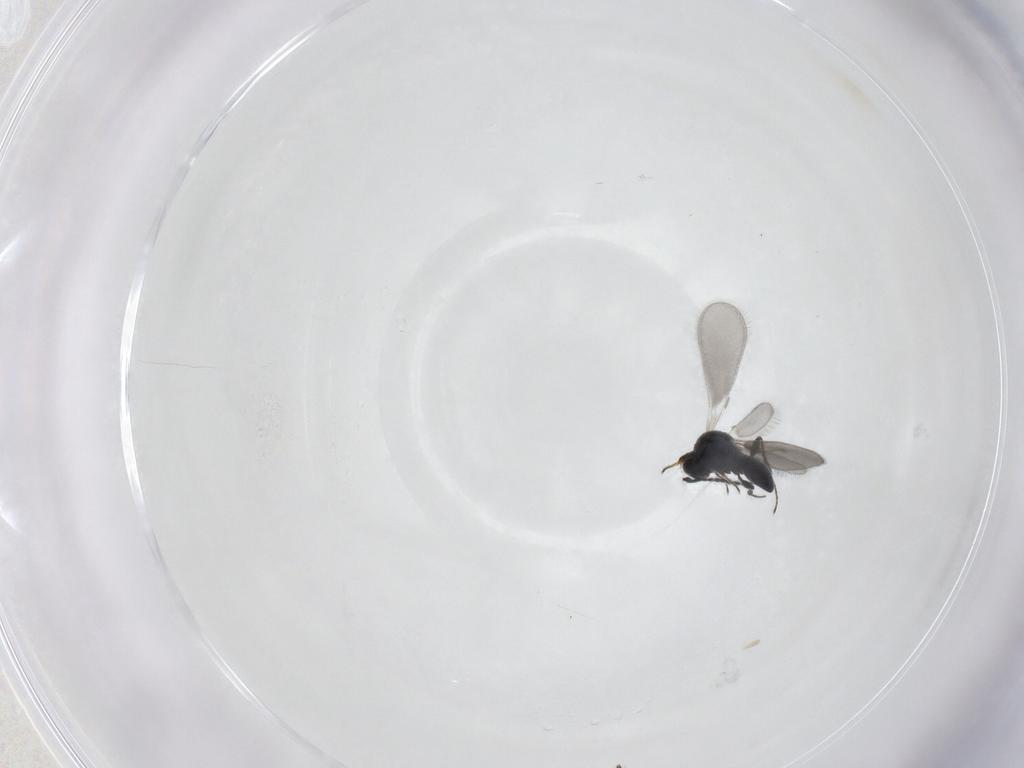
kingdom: Animalia
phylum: Arthropoda
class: Insecta
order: Hymenoptera
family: Platygastridae
